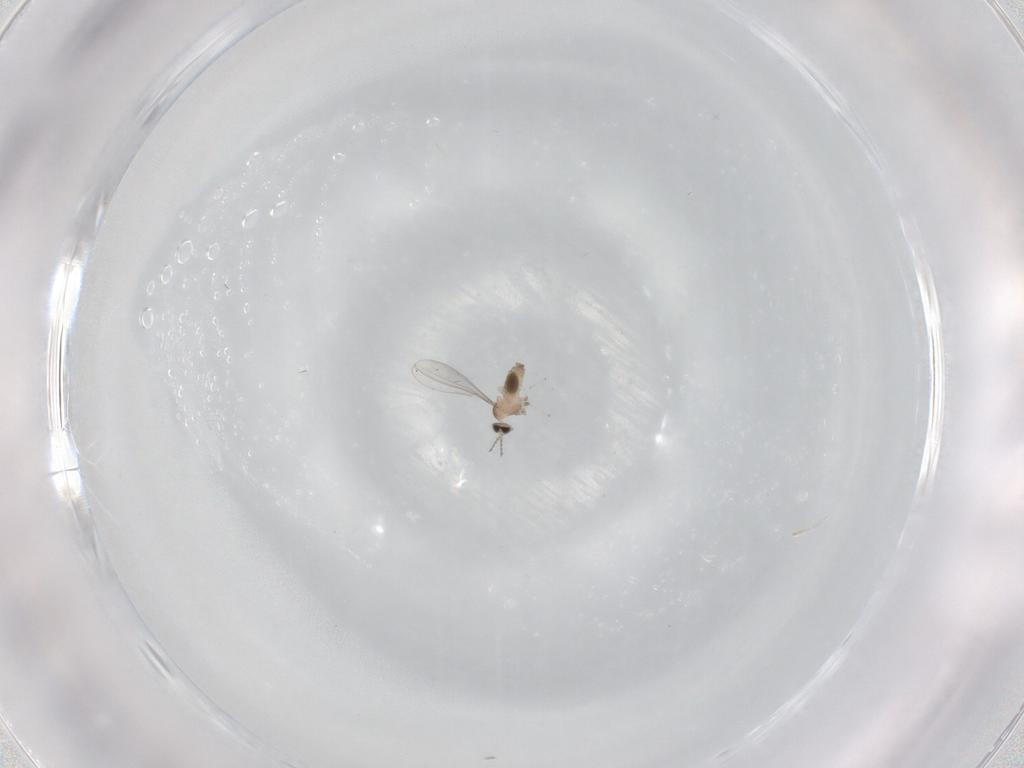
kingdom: Animalia
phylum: Arthropoda
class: Insecta
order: Diptera
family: Cecidomyiidae
